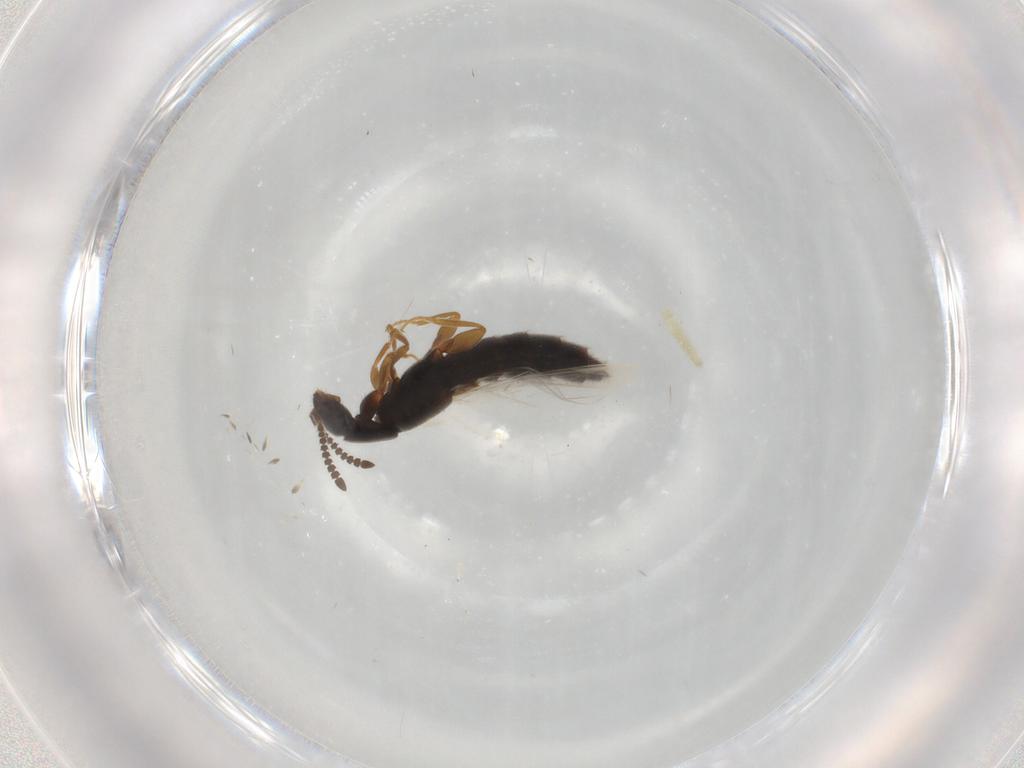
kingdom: Animalia
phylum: Arthropoda
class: Insecta
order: Coleoptera
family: Staphylinidae
